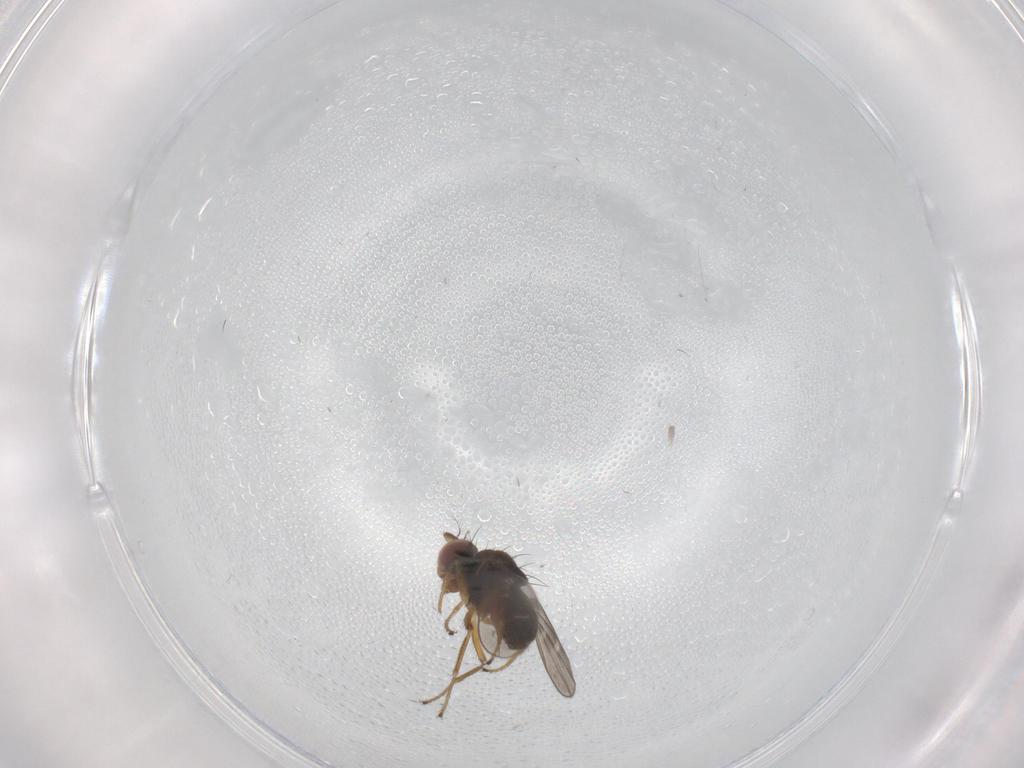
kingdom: Animalia
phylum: Arthropoda
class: Insecta
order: Diptera
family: Ephydridae
